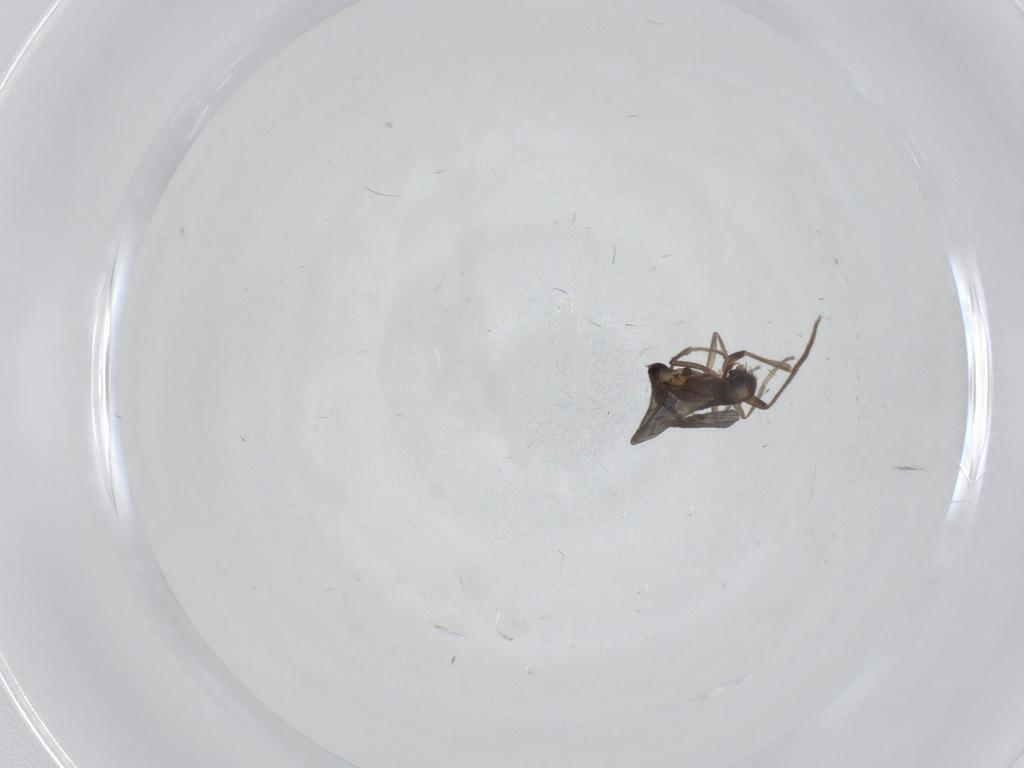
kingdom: Animalia
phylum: Arthropoda
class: Insecta
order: Diptera
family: Phoridae
